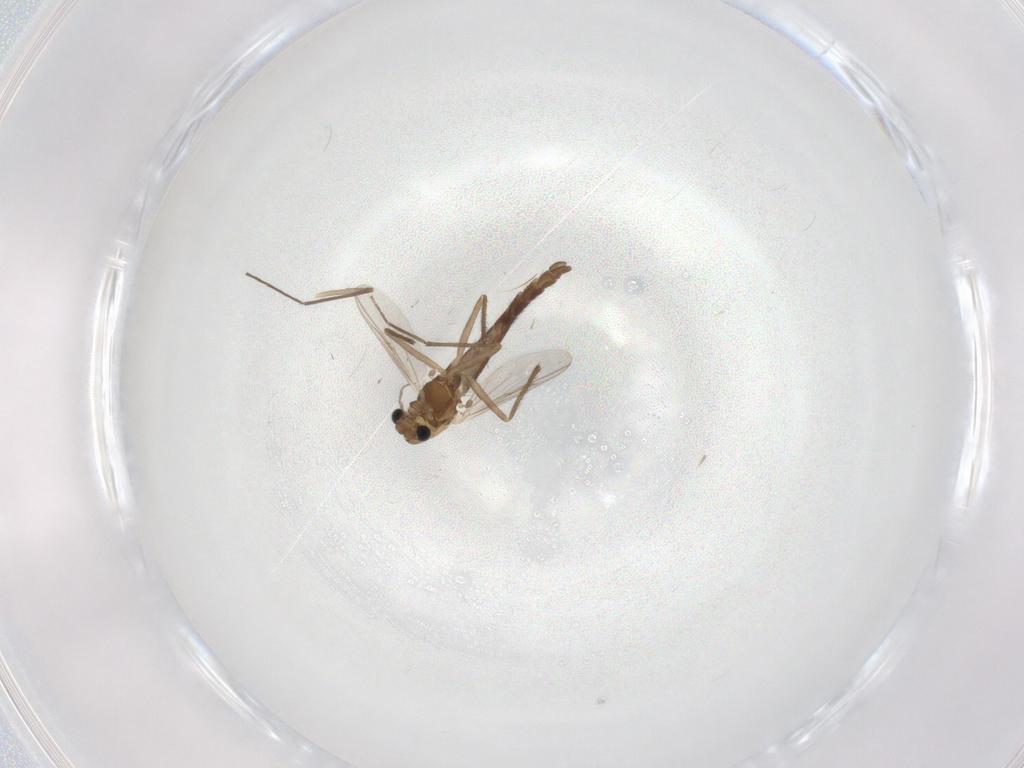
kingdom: Animalia
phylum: Arthropoda
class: Insecta
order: Diptera
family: Chironomidae
